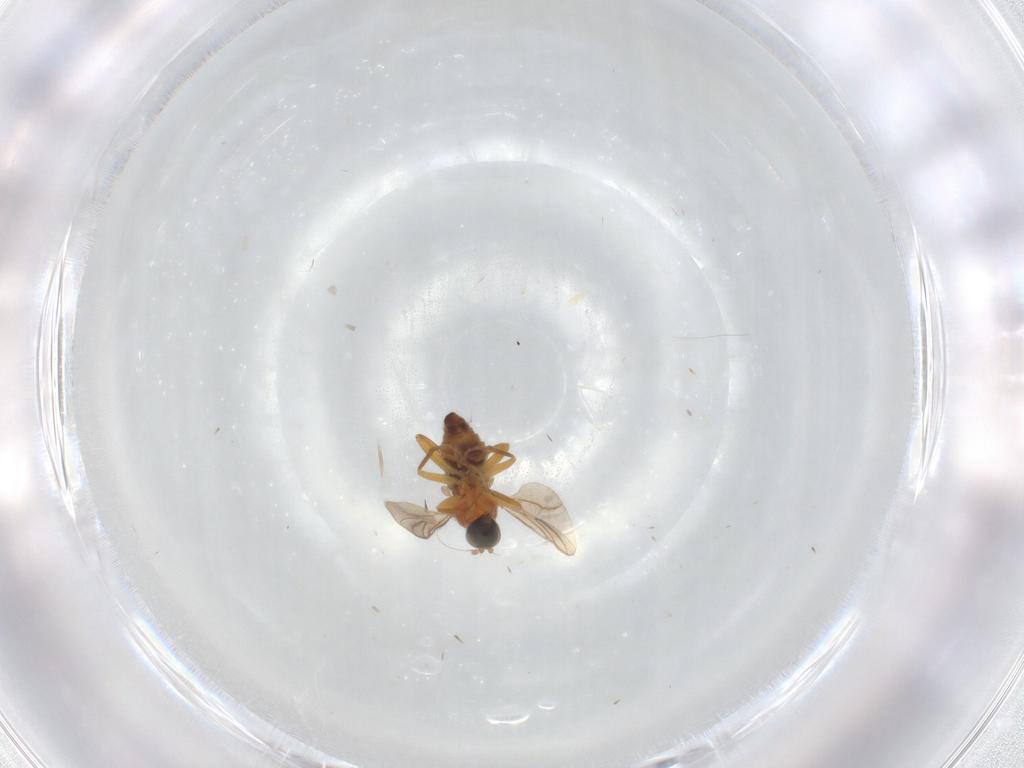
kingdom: Animalia
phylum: Arthropoda
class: Insecta
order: Diptera
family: Hybotidae
